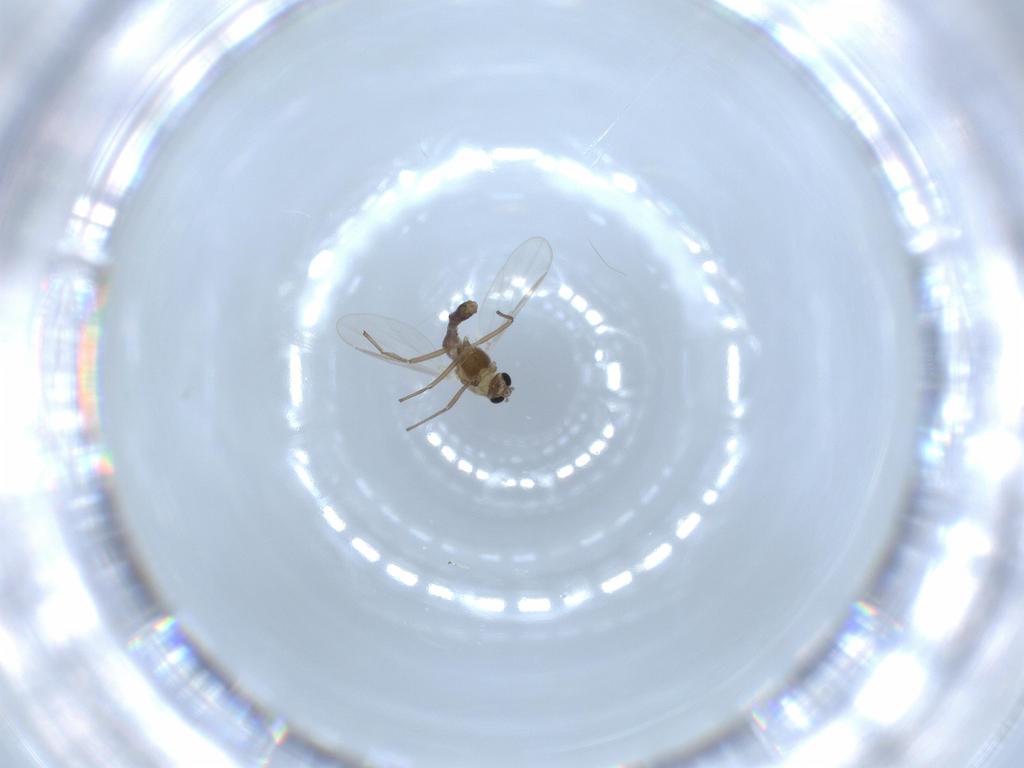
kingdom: Animalia
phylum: Arthropoda
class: Insecta
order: Diptera
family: Chironomidae
